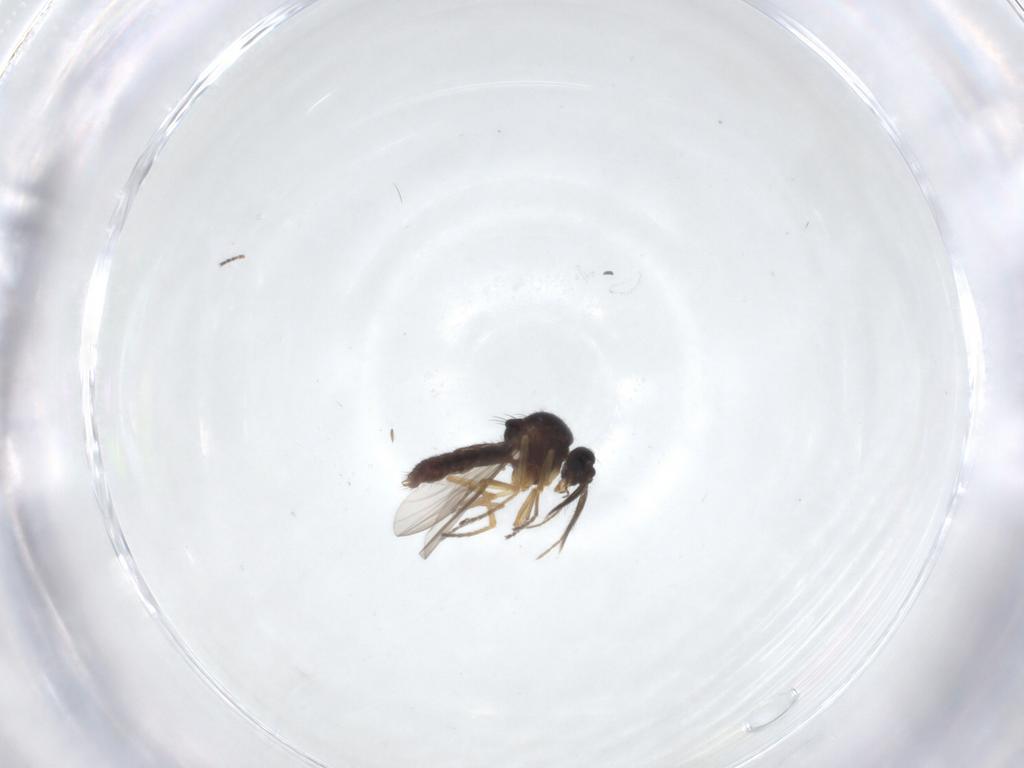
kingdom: Animalia
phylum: Arthropoda
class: Insecta
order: Diptera
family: Ceratopogonidae
